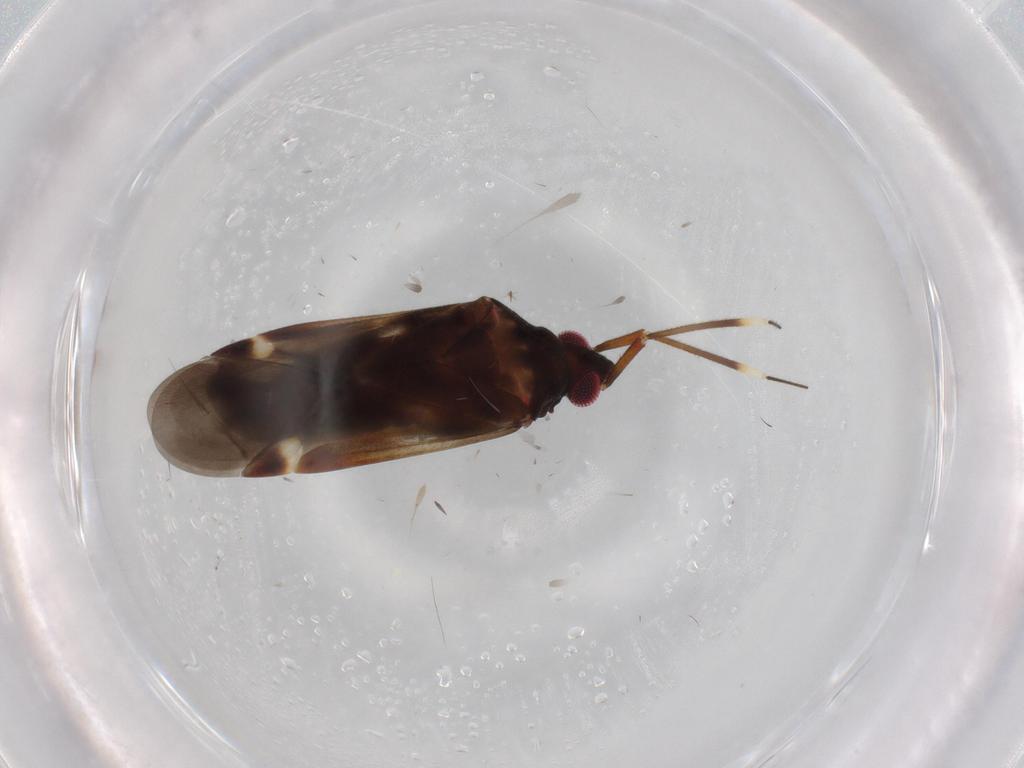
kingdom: Animalia
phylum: Arthropoda
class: Insecta
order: Hemiptera
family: Miridae
